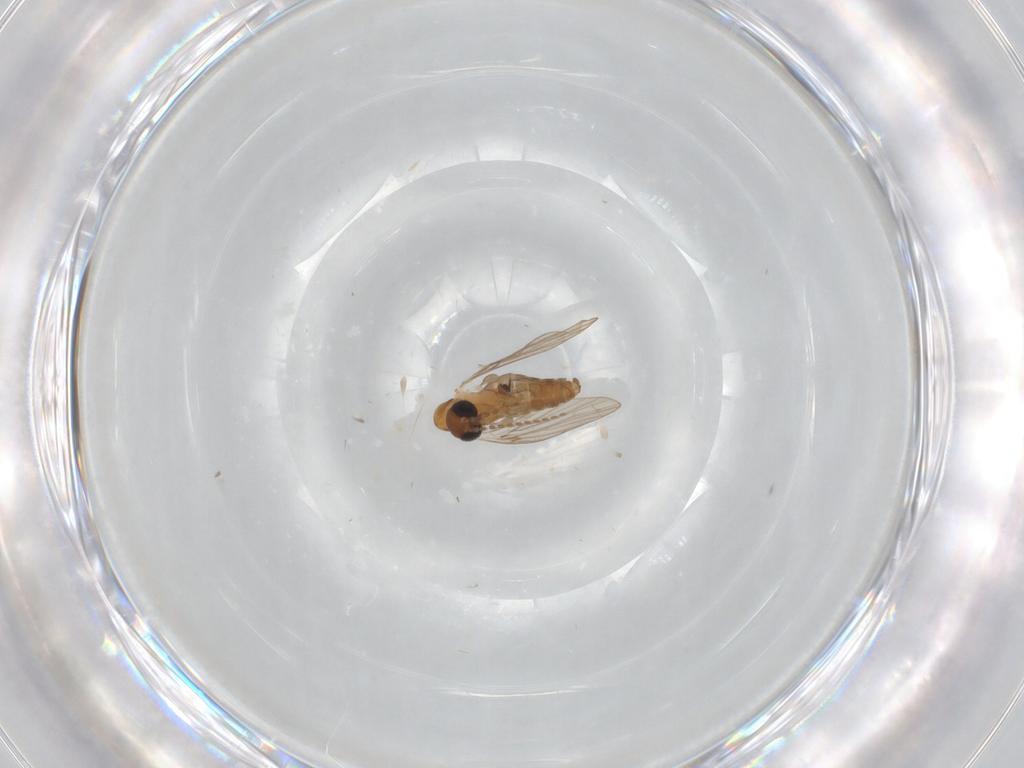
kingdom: Animalia
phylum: Arthropoda
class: Insecta
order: Diptera
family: Ceratopogonidae
